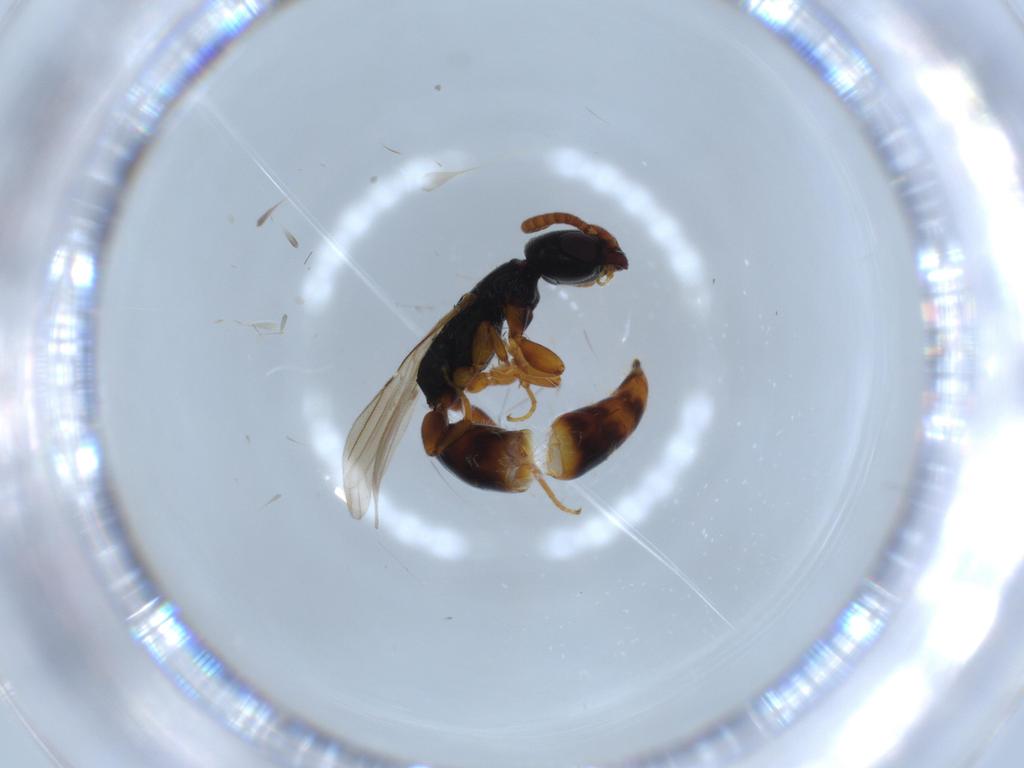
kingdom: Animalia
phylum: Arthropoda
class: Insecta
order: Hymenoptera
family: Bethylidae
